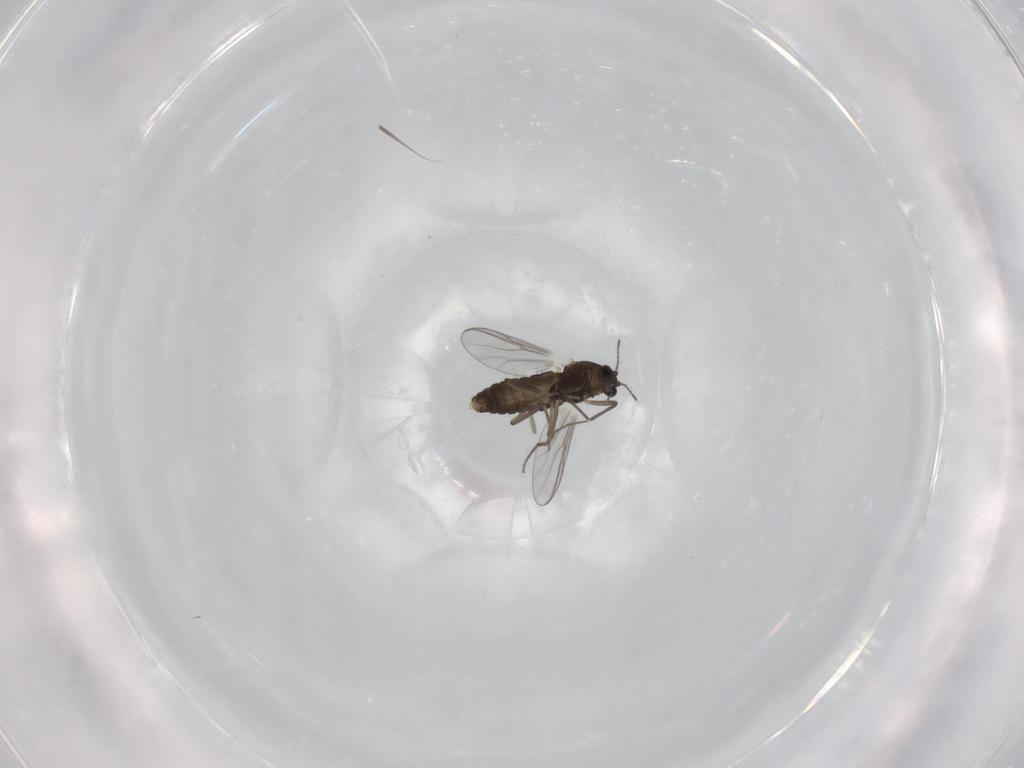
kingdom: Animalia
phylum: Arthropoda
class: Insecta
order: Diptera
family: Chironomidae
